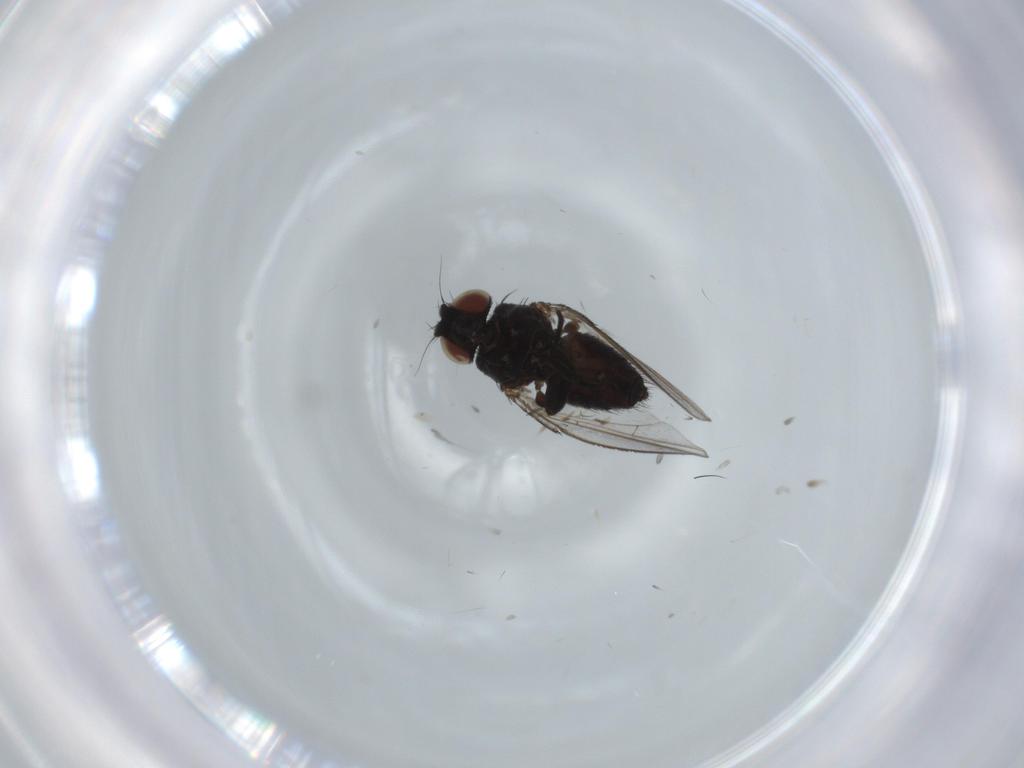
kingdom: Animalia
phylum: Arthropoda
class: Insecta
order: Diptera
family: Milichiidae
